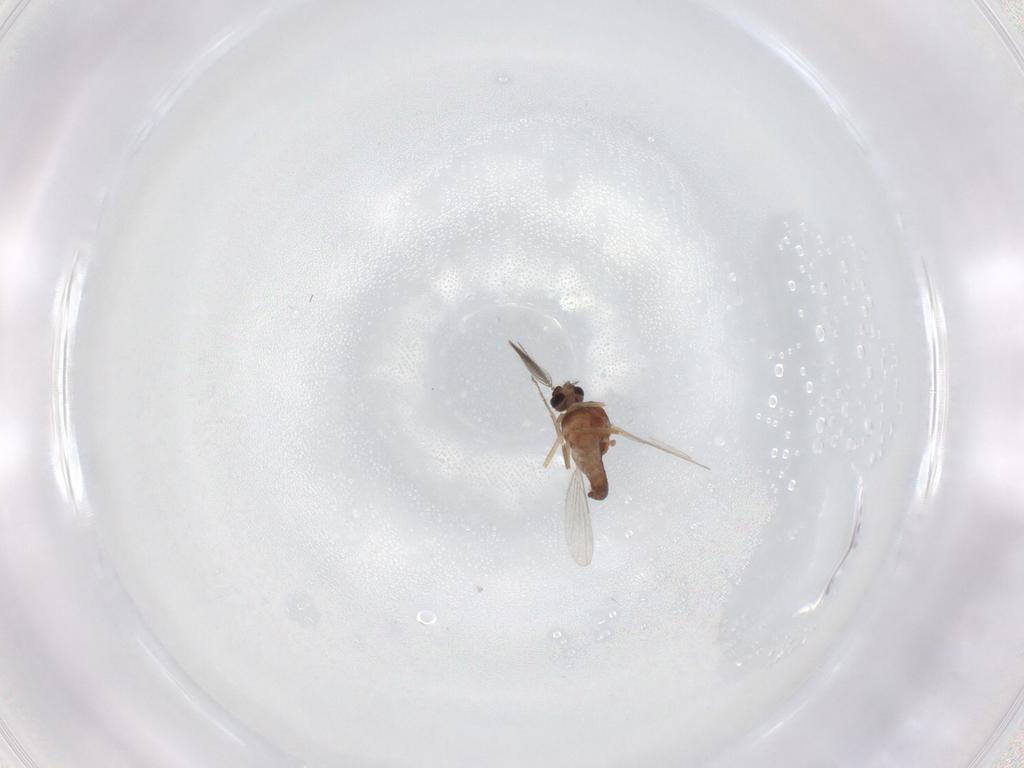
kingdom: Animalia
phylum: Arthropoda
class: Insecta
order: Diptera
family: Ceratopogonidae
